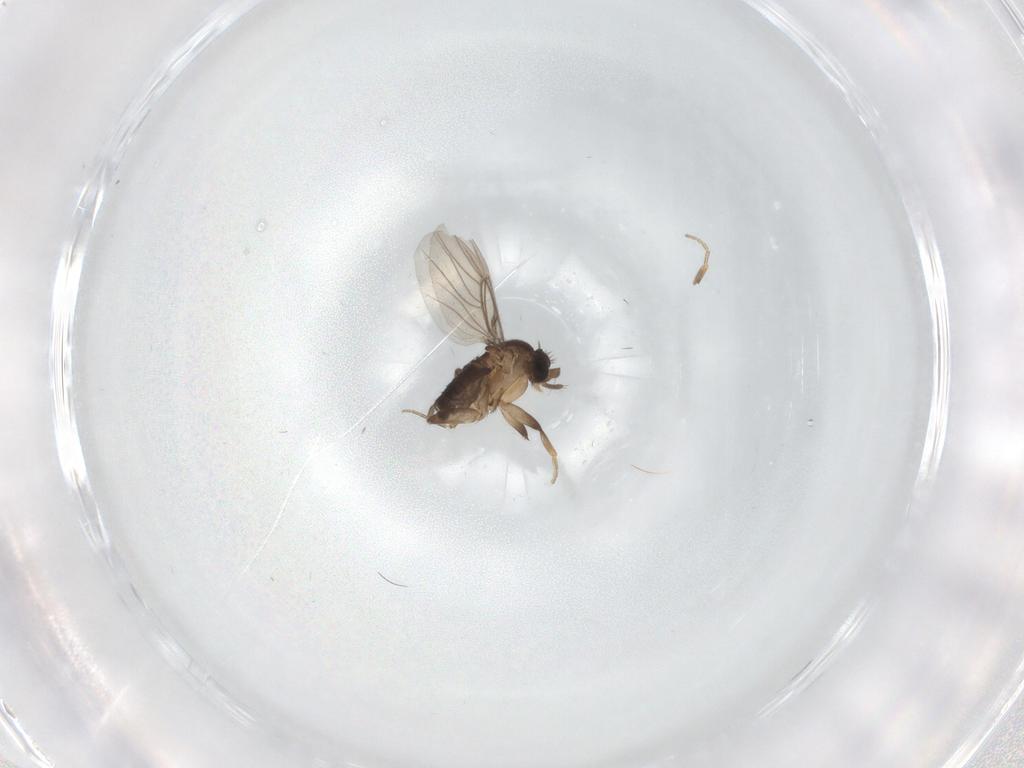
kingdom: Animalia
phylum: Arthropoda
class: Insecta
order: Diptera
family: Phoridae
